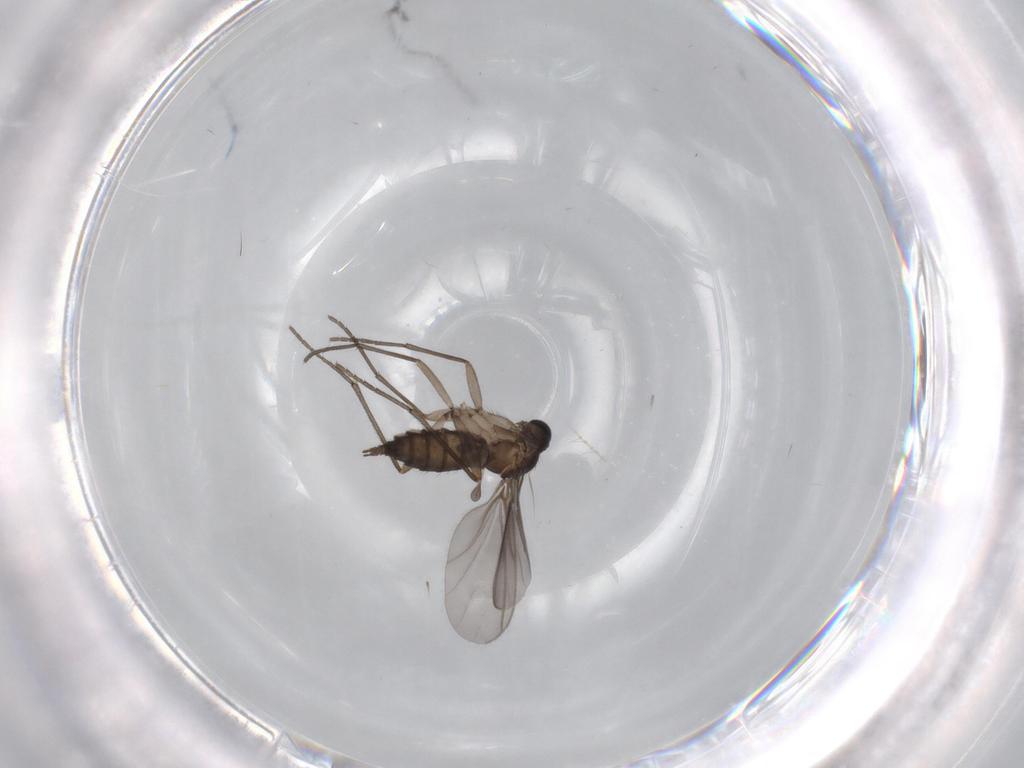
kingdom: Animalia
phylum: Arthropoda
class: Insecta
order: Diptera
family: Sciaridae
